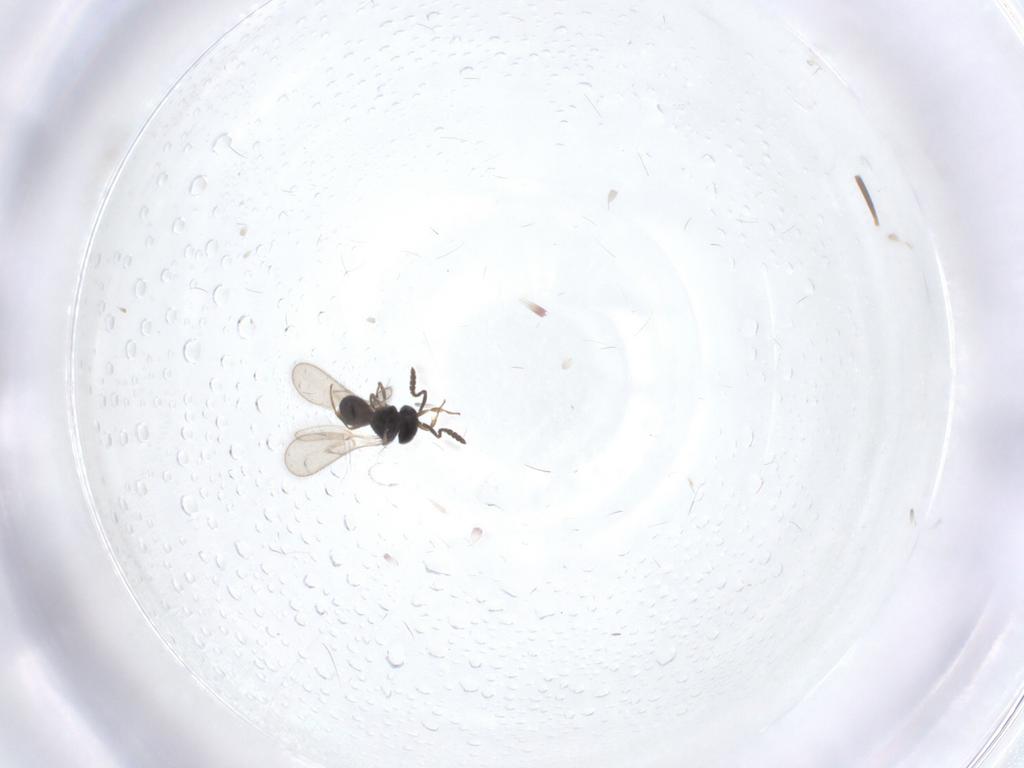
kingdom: Animalia
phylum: Arthropoda
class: Insecta
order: Hymenoptera
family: Scelionidae
